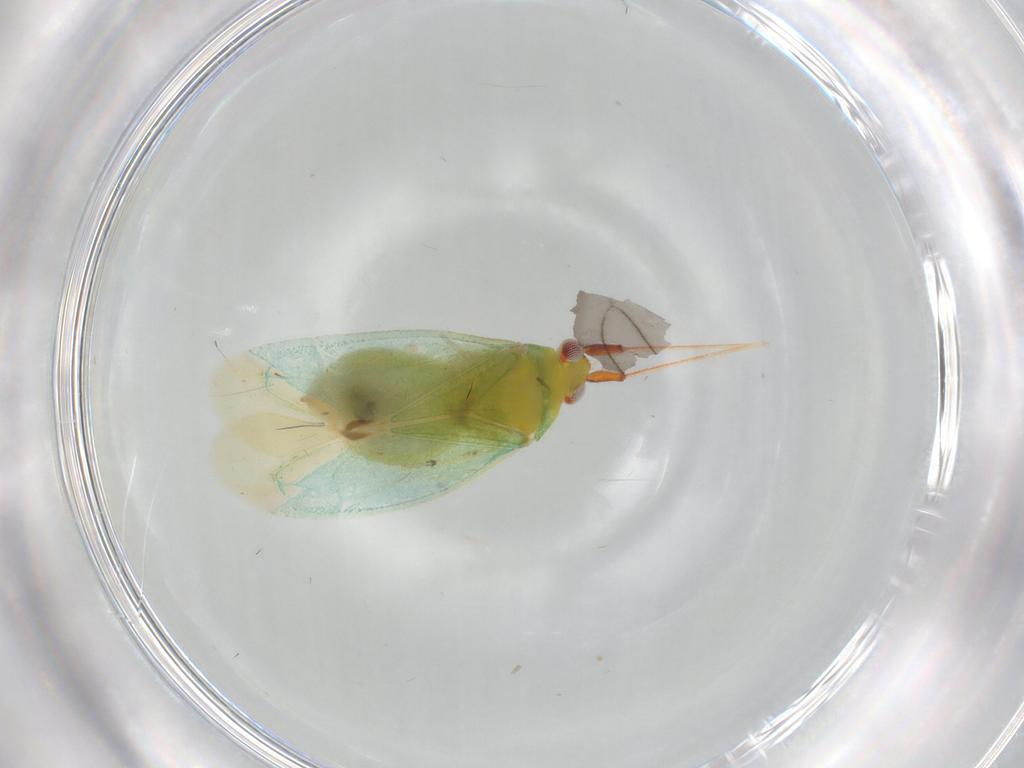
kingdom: Animalia
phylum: Arthropoda
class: Insecta
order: Hemiptera
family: Miridae
